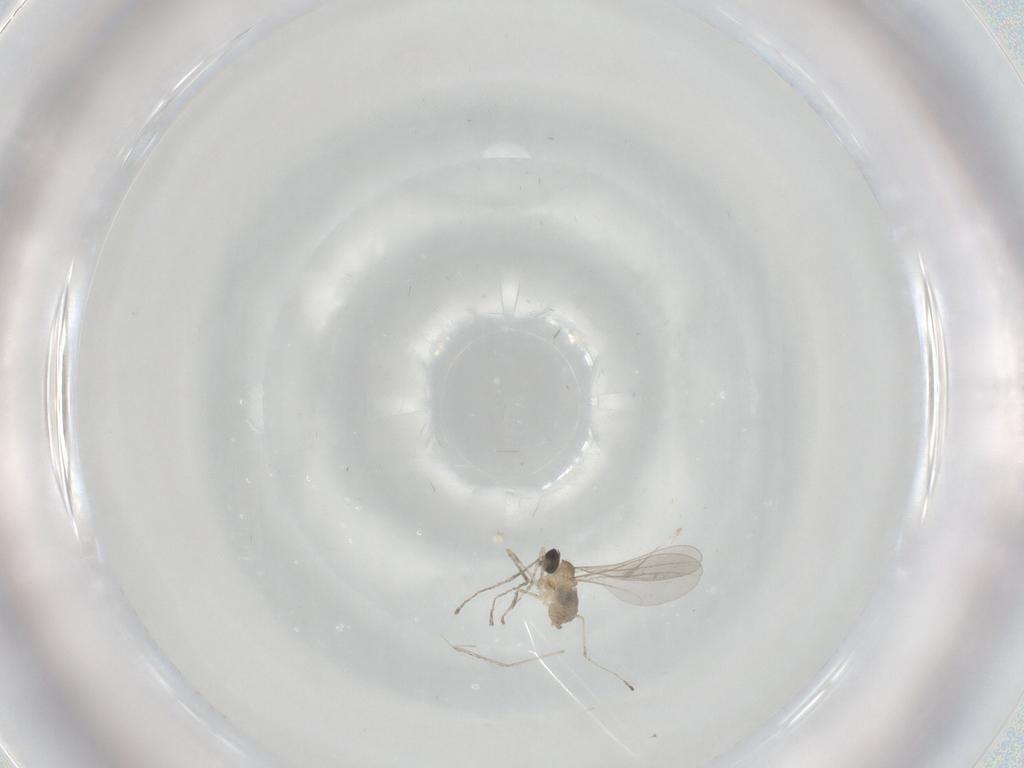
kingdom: Animalia
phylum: Arthropoda
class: Insecta
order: Diptera
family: Cecidomyiidae
